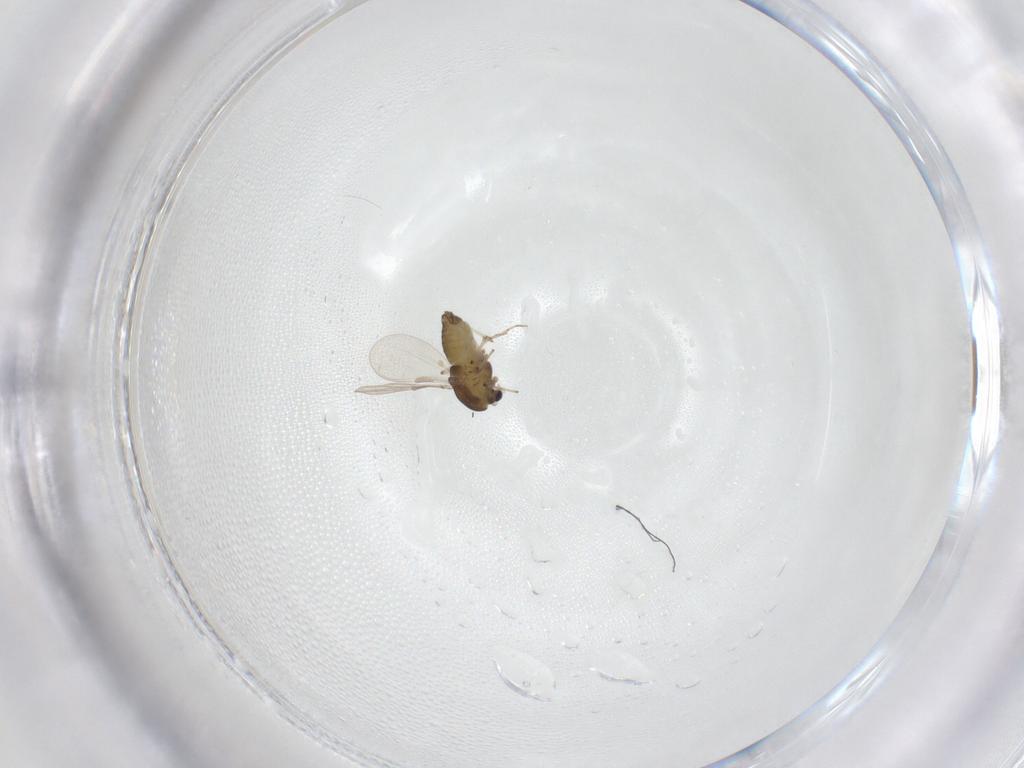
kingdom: Animalia
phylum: Arthropoda
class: Insecta
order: Diptera
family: Chironomidae
